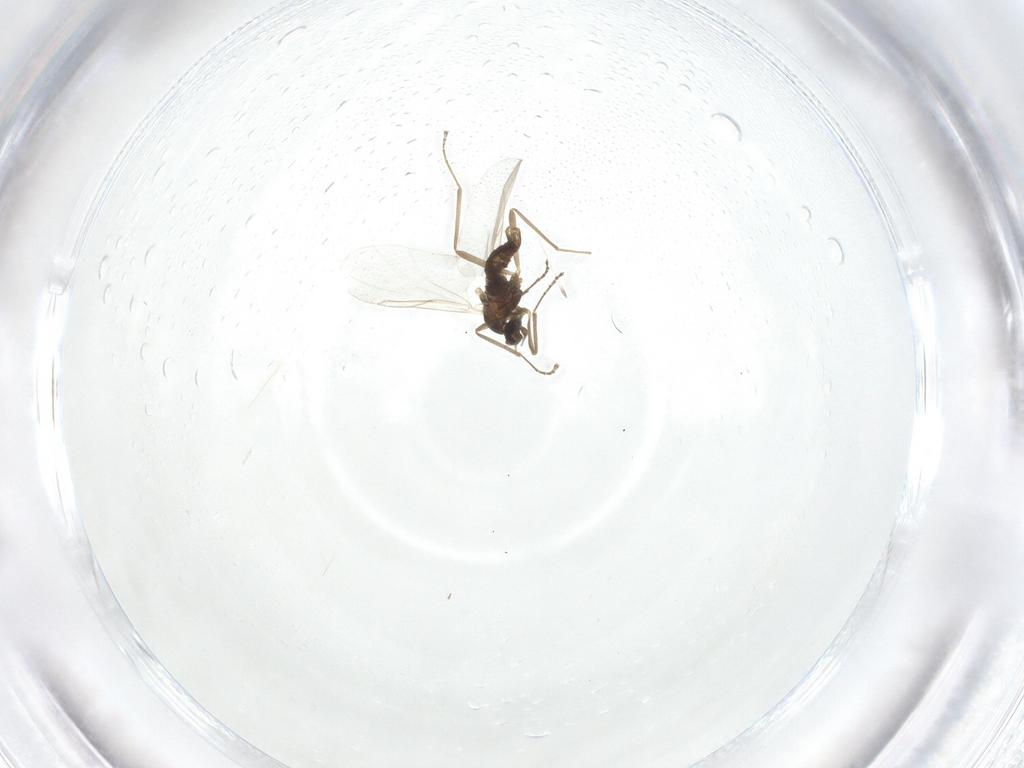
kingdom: Animalia
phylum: Arthropoda
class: Insecta
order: Diptera
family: Cecidomyiidae
